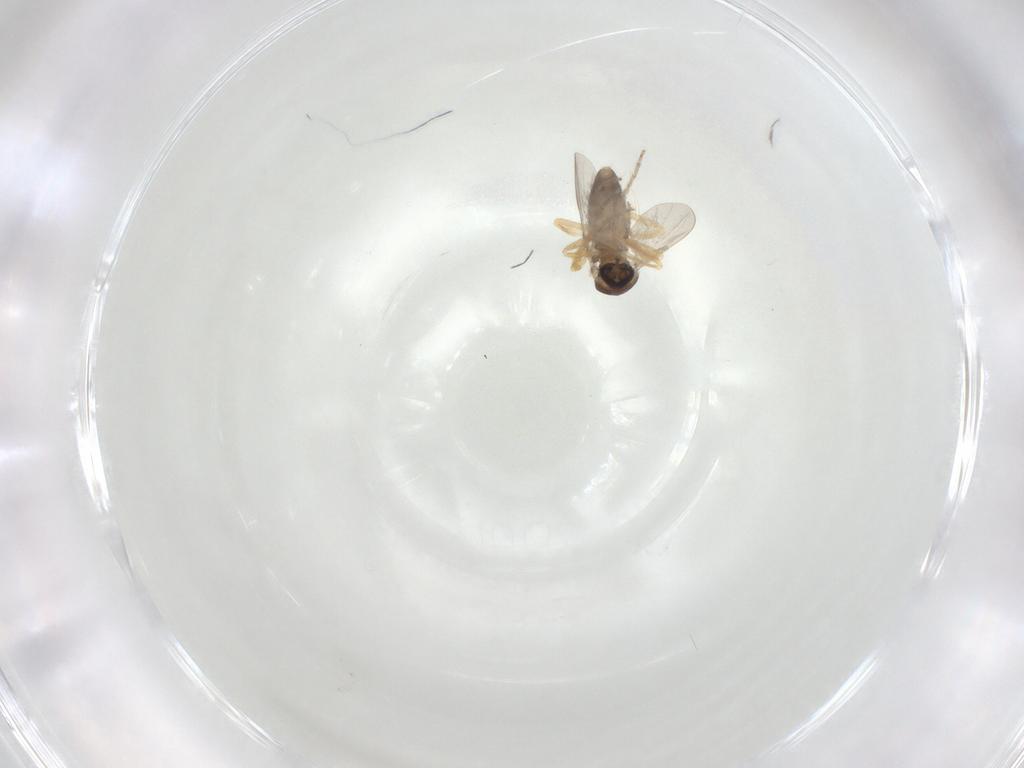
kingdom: Animalia
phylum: Arthropoda
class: Insecta
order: Diptera
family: Ceratopogonidae
